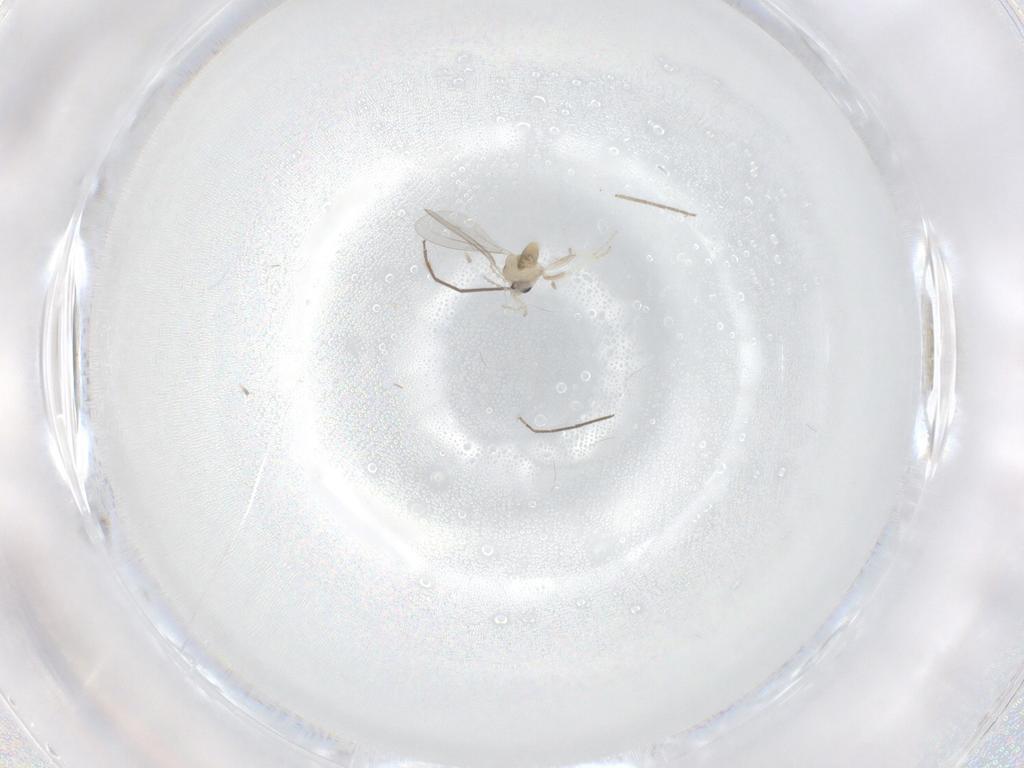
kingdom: Animalia
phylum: Arthropoda
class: Insecta
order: Diptera
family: Cecidomyiidae
